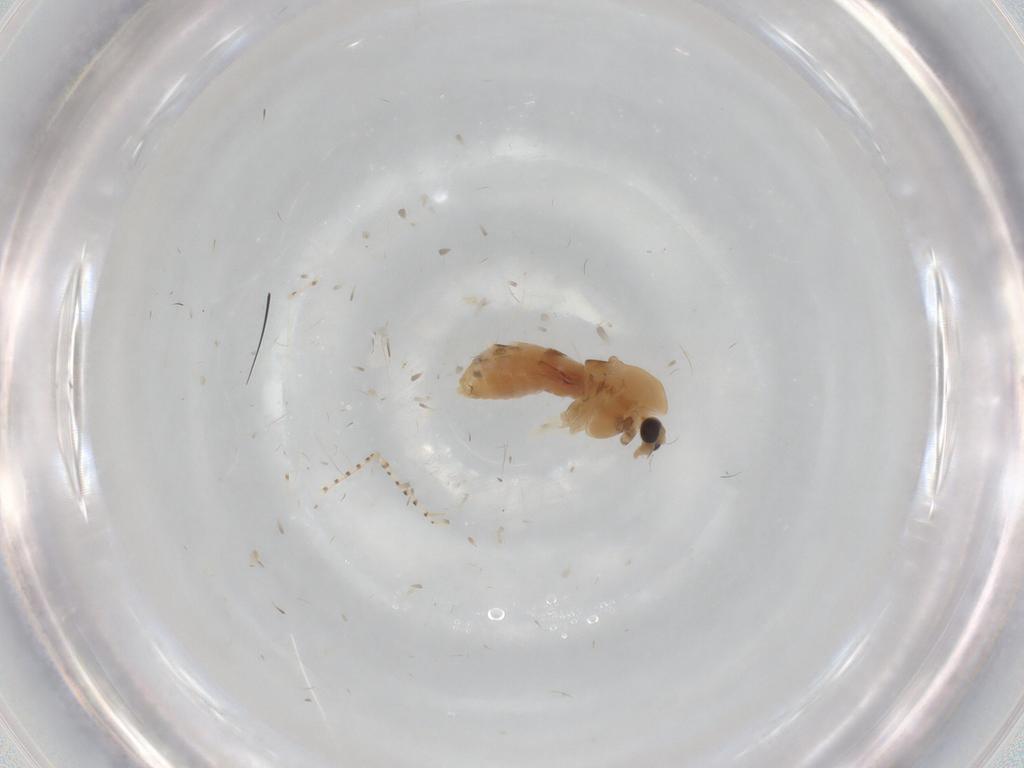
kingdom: Animalia
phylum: Arthropoda
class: Insecta
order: Diptera
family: Chironomidae
